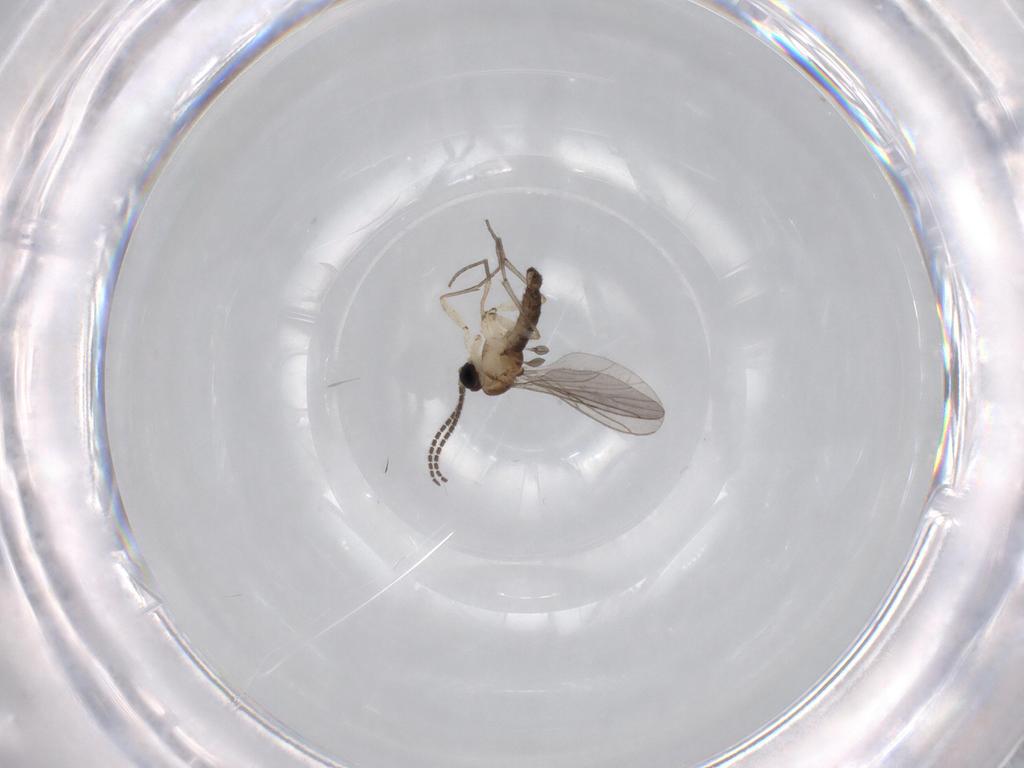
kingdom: Animalia
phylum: Arthropoda
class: Insecta
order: Diptera
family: Sciaridae
